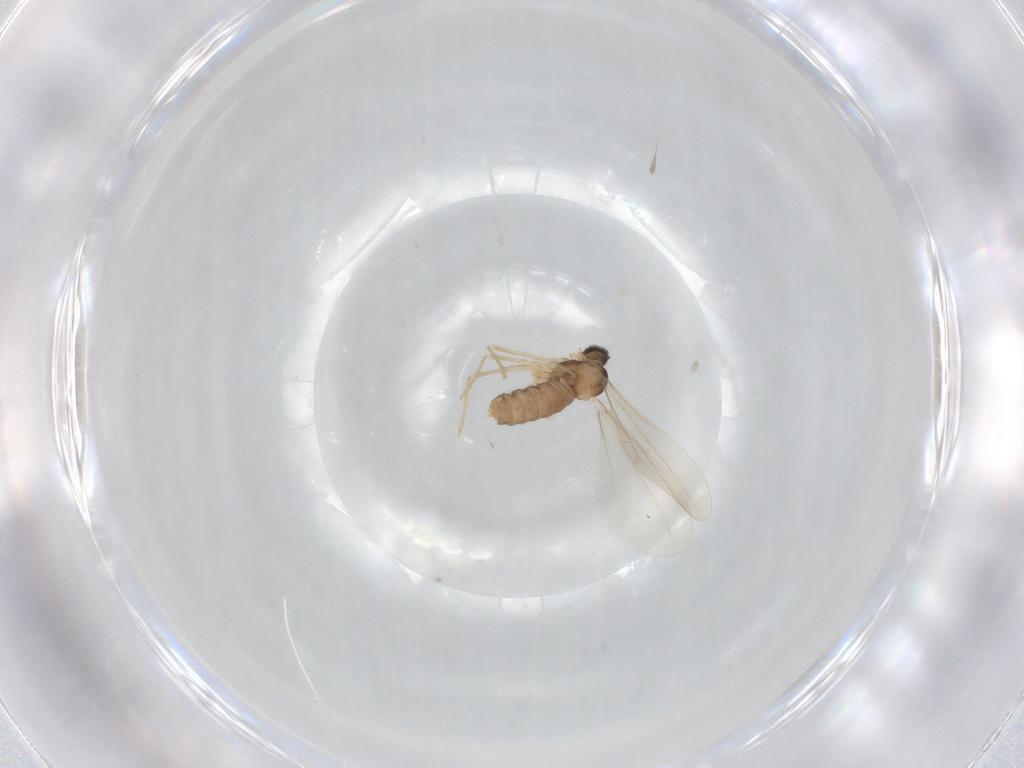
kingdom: Animalia
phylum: Arthropoda
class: Insecta
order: Diptera
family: Cecidomyiidae
